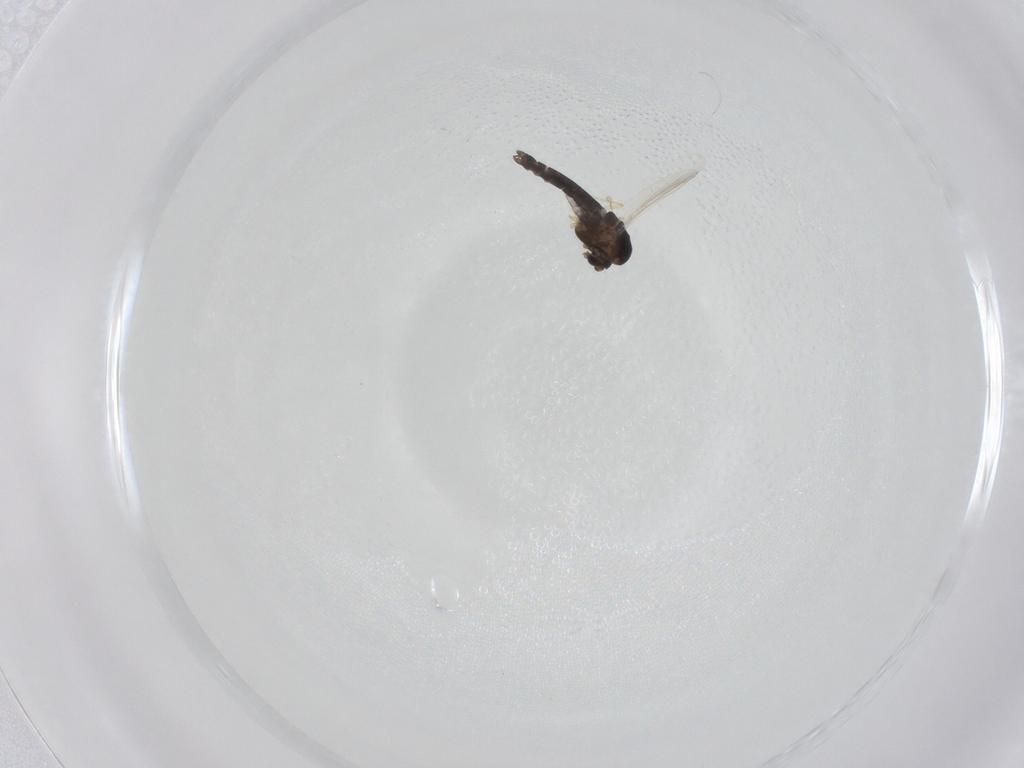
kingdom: Animalia
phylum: Arthropoda
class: Insecta
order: Diptera
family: Chironomidae
